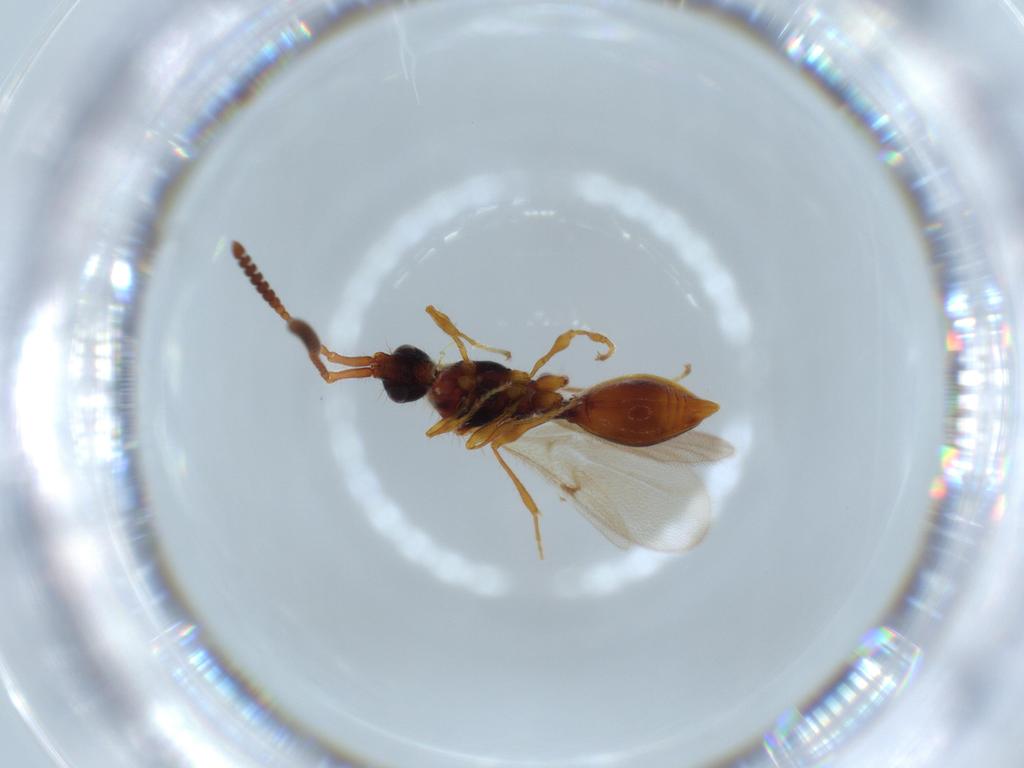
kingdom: Animalia
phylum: Arthropoda
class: Insecta
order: Hymenoptera
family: Diapriidae
